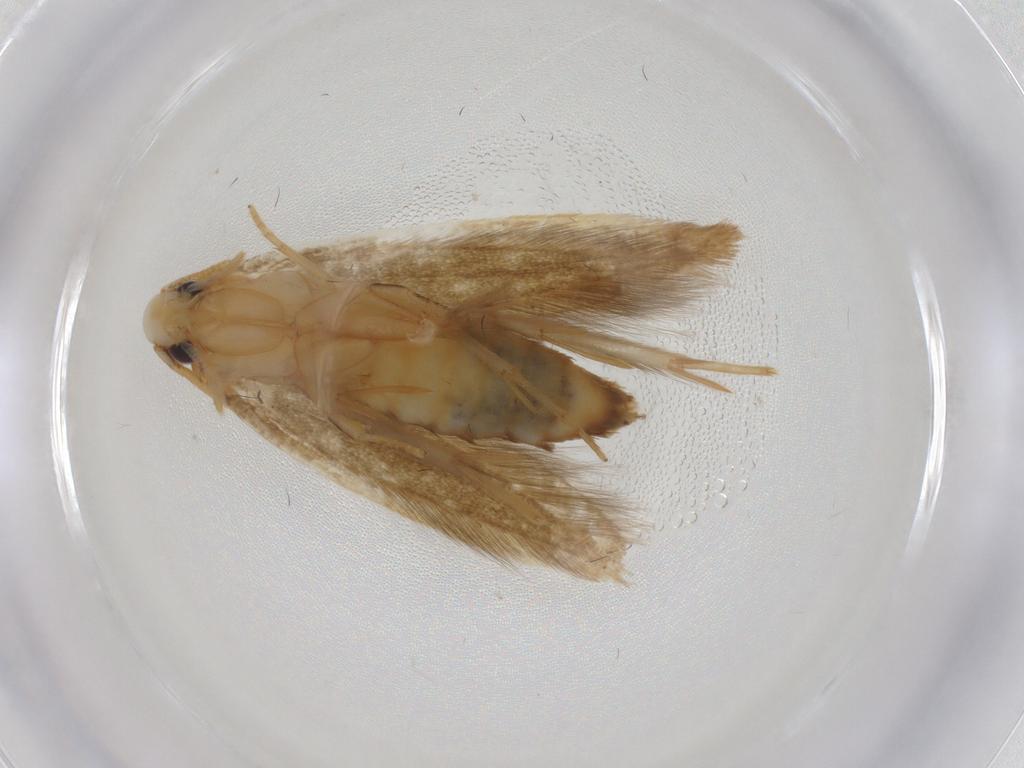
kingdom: Animalia
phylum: Arthropoda
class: Insecta
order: Lepidoptera
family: Tineidae
